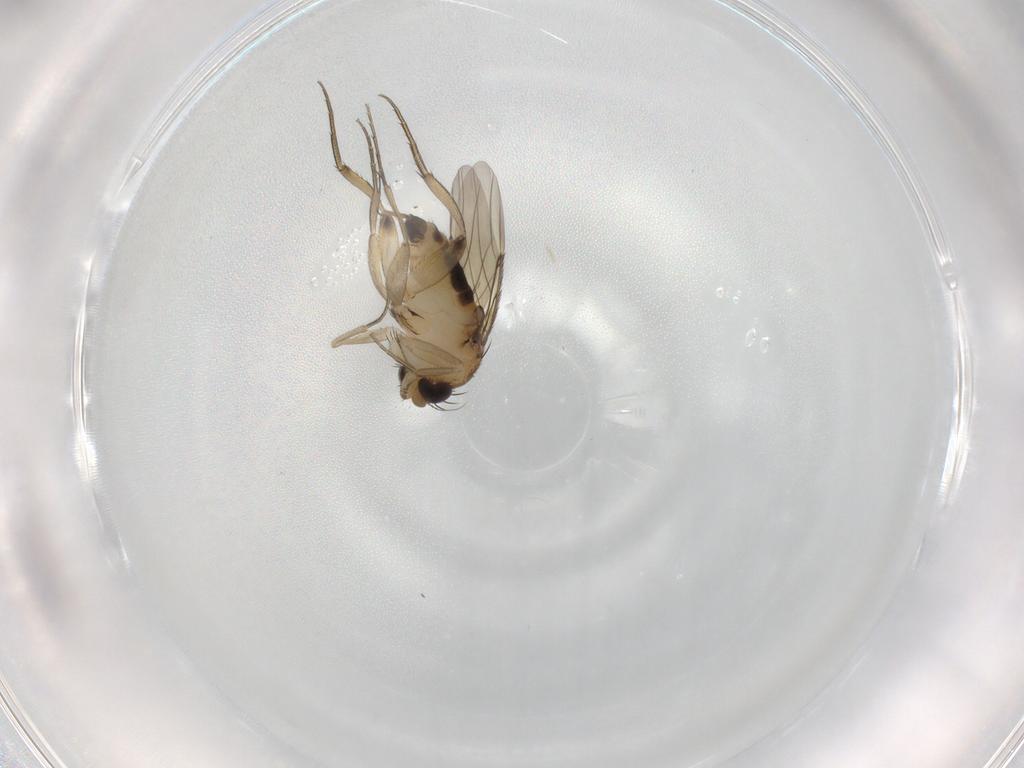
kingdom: Animalia
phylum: Arthropoda
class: Insecta
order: Diptera
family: Phoridae
